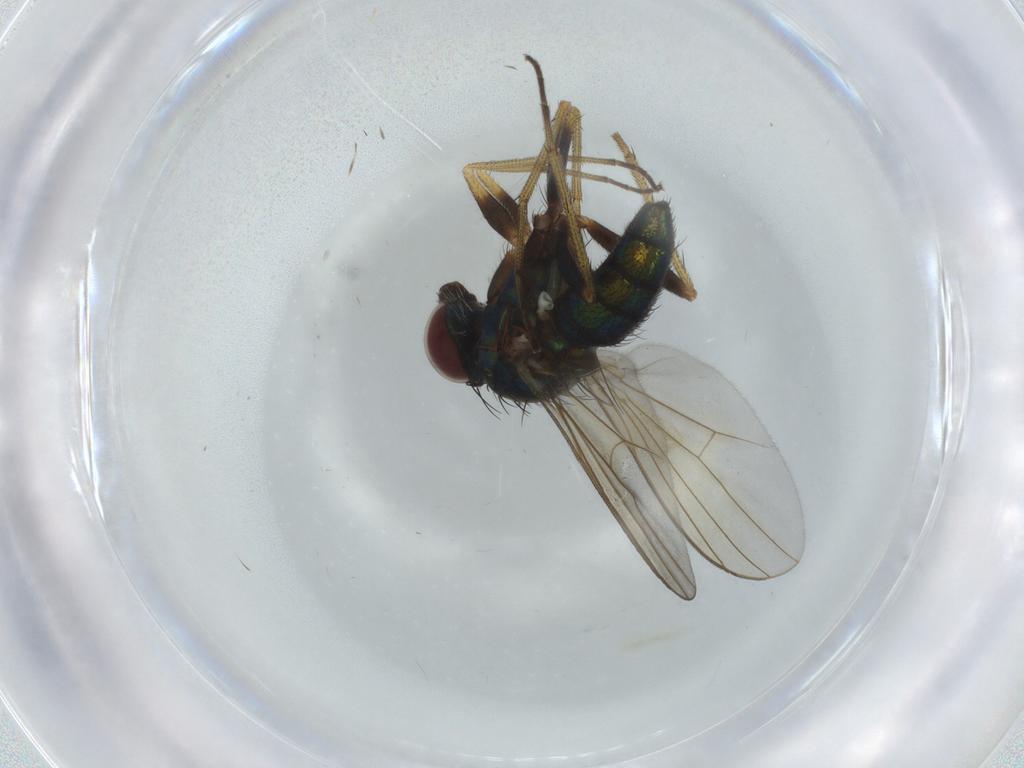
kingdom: Animalia
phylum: Arthropoda
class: Insecta
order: Diptera
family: Dolichopodidae
